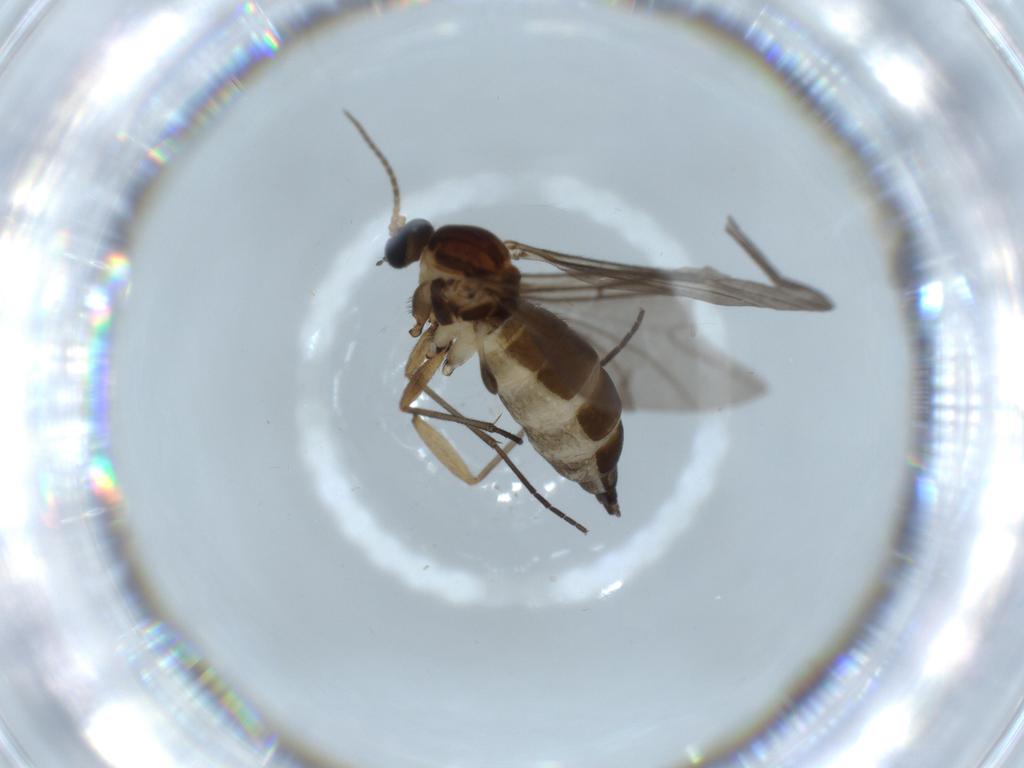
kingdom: Animalia
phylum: Arthropoda
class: Insecta
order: Diptera
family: Sciaridae
